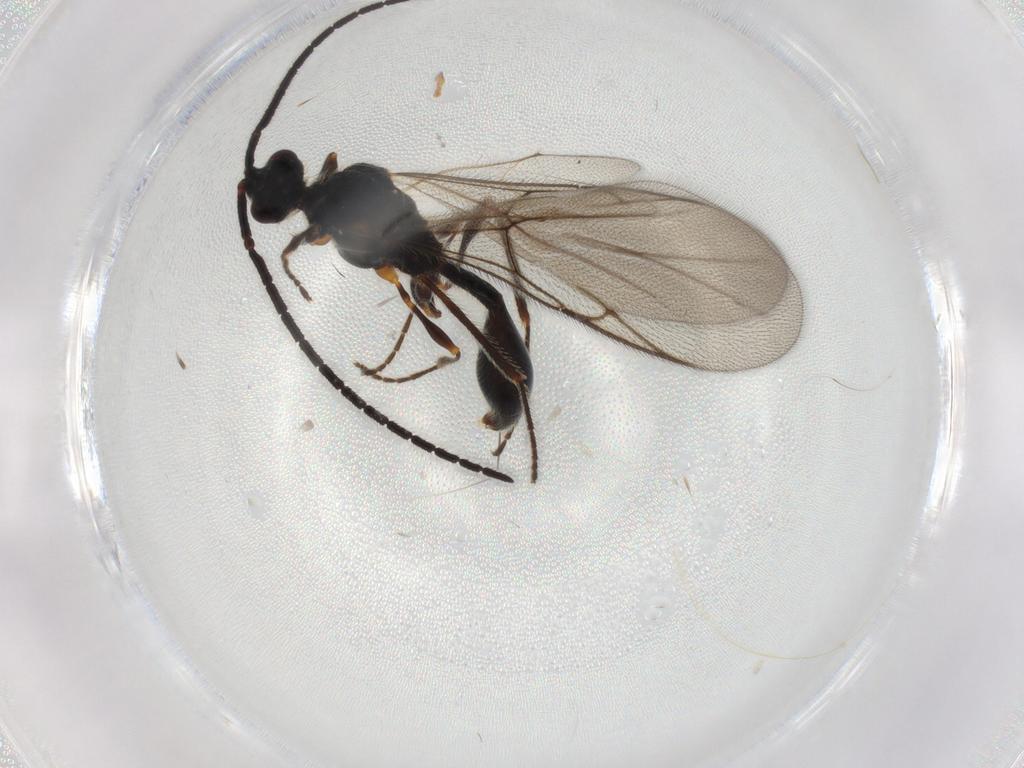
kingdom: Animalia
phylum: Arthropoda
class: Insecta
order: Hymenoptera
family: Diapriidae
